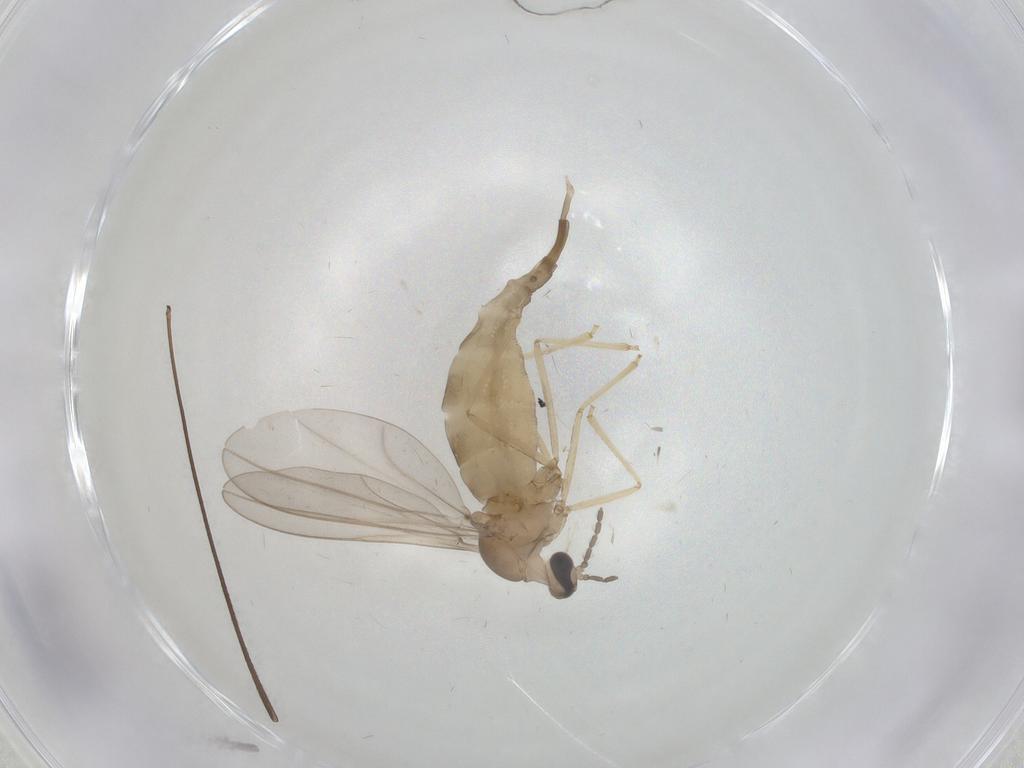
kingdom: Animalia
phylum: Arthropoda
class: Insecta
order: Diptera
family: Cecidomyiidae
